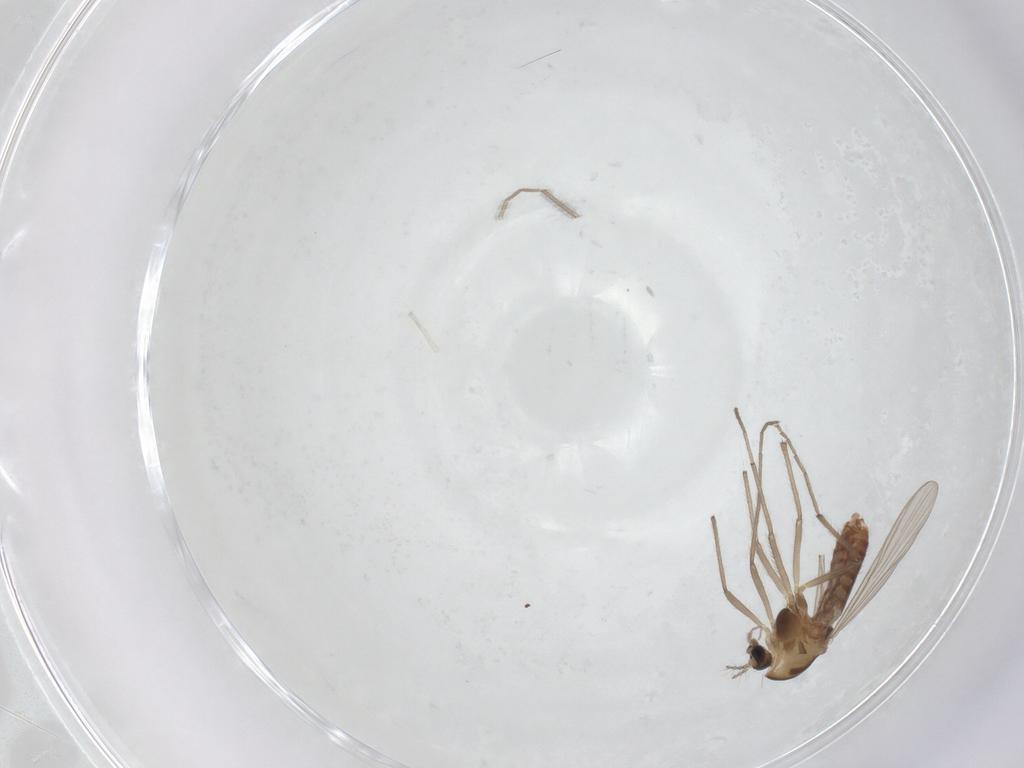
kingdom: Animalia
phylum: Arthropoda
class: Insecta
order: Diptera
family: Chironomidae
